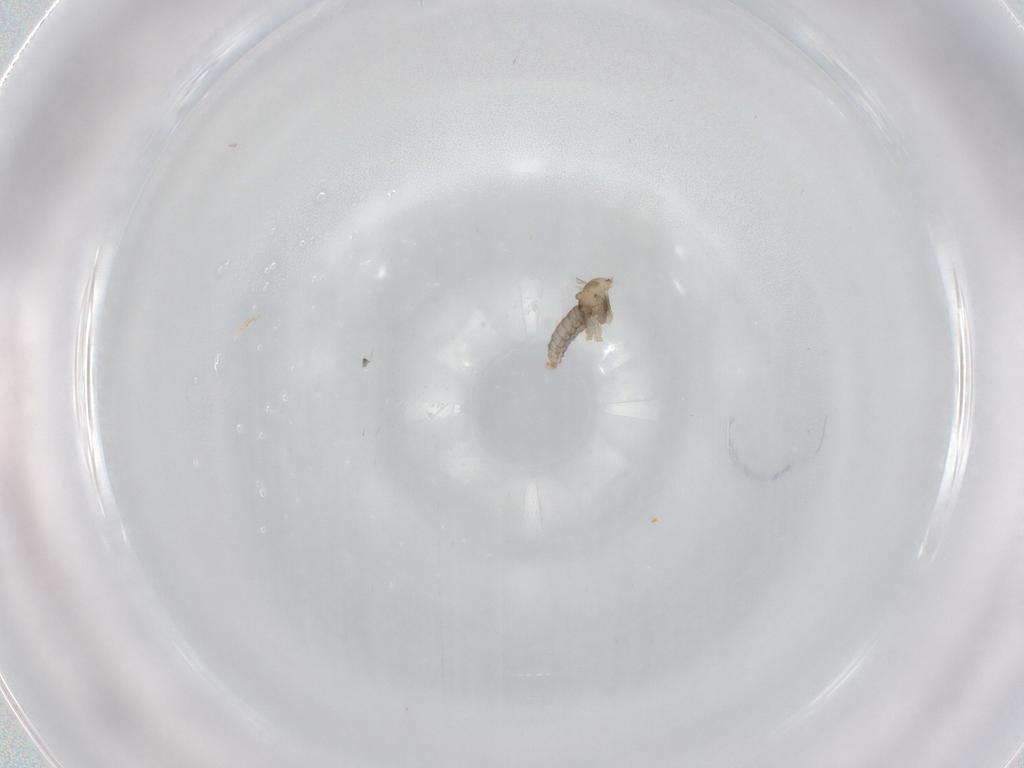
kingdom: Animalia
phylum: Arthropoda
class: Insecta
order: Diptera
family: Cecidomyiidae
